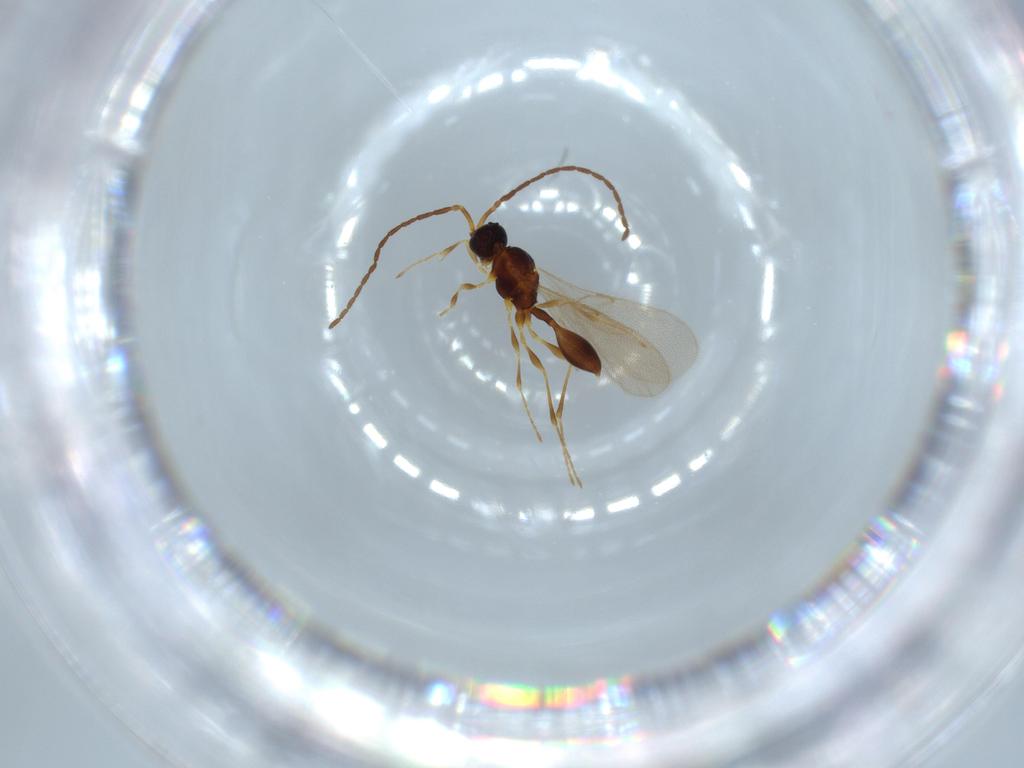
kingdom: Animalia
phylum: Arthropoda
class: Insecta
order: Hymenoptera
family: Diapriidae
